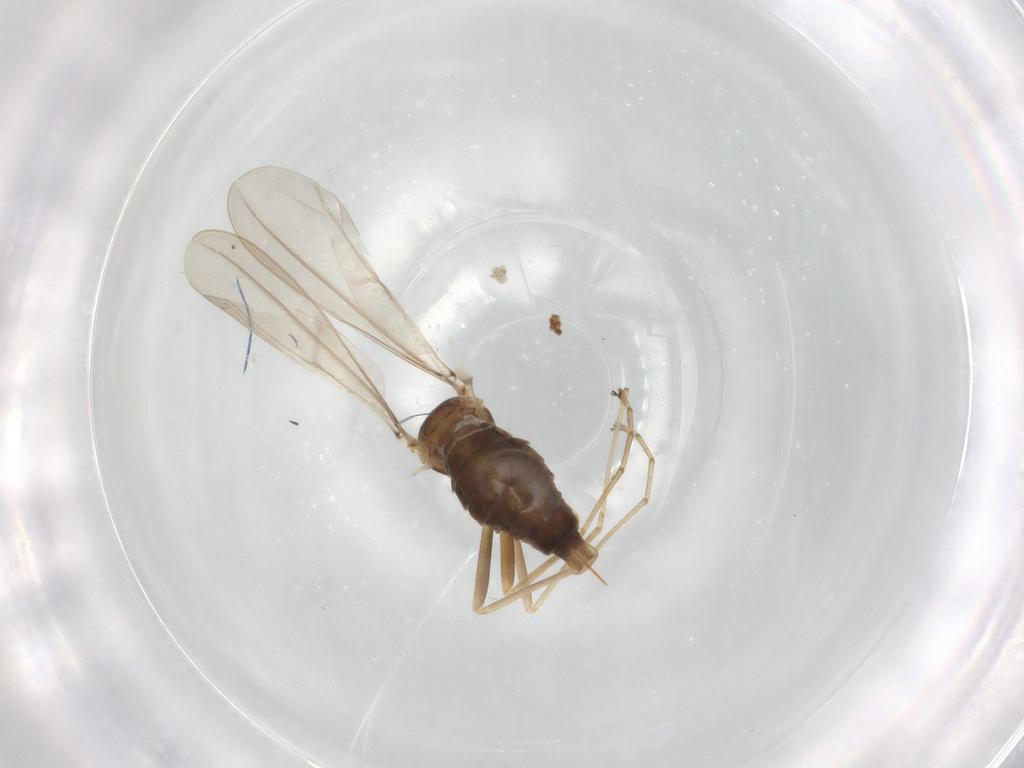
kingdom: Animalia
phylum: Arthropoda
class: Insecta
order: Diptera
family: Cecidomyiidae
